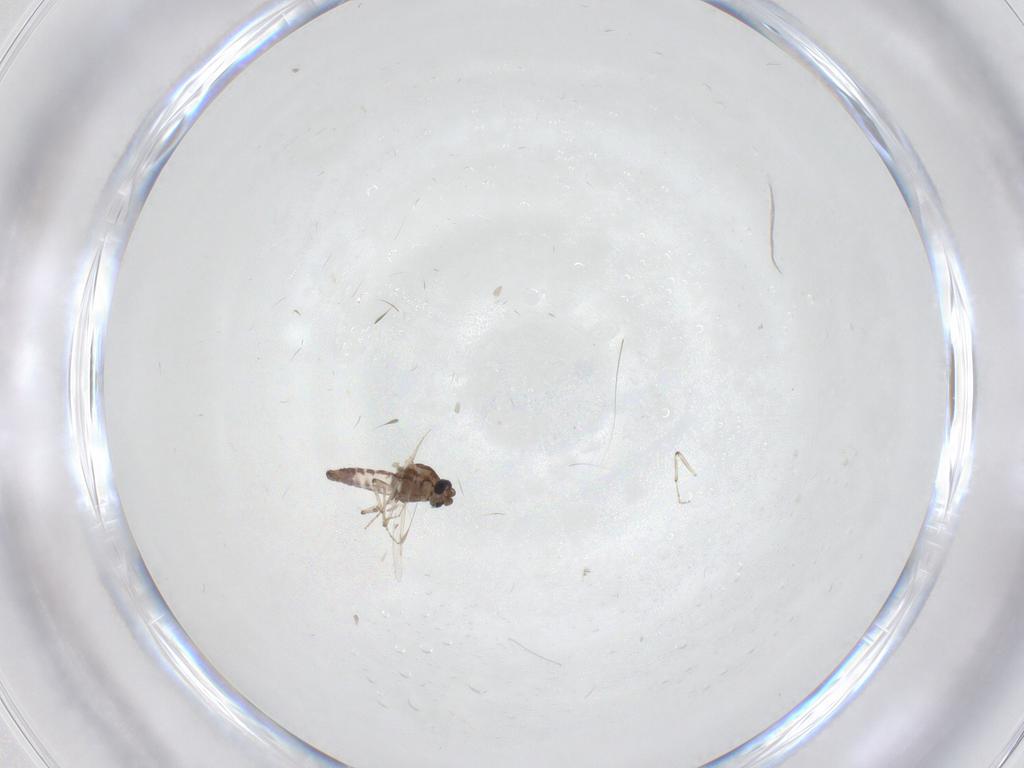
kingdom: Animalia
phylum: Arthropoda
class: Insecta
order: Diptera
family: Ceratopogonidae
